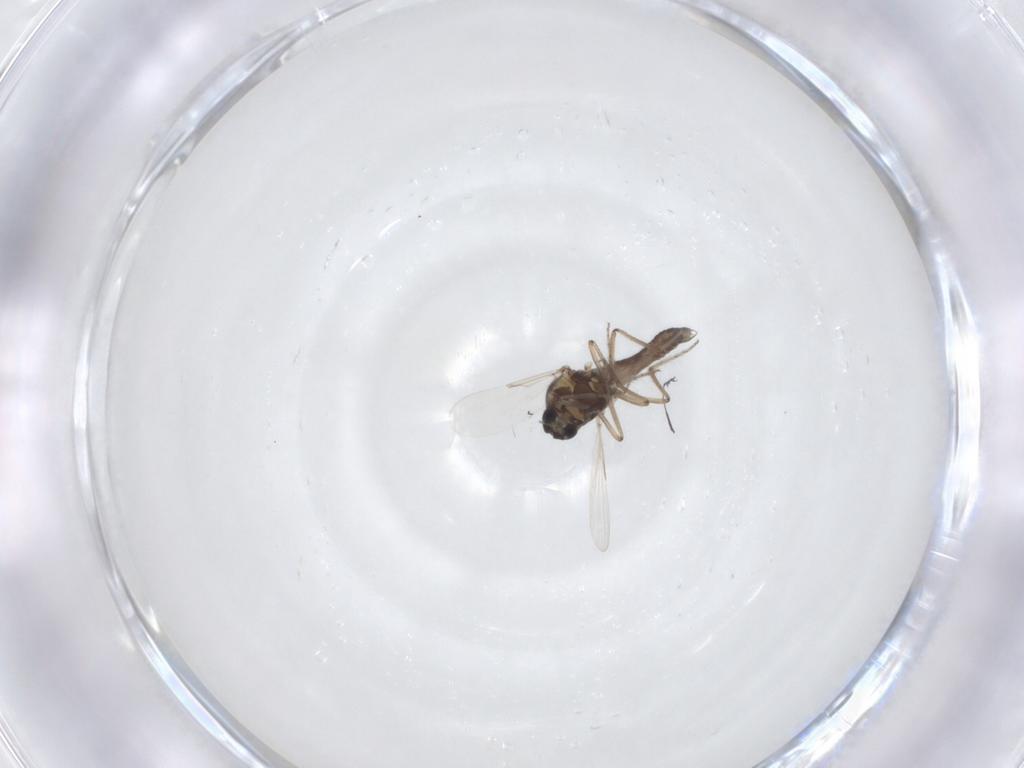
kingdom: Animalia
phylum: Arthropoda
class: Insecta
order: Diptera
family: Ceratopogonidae
